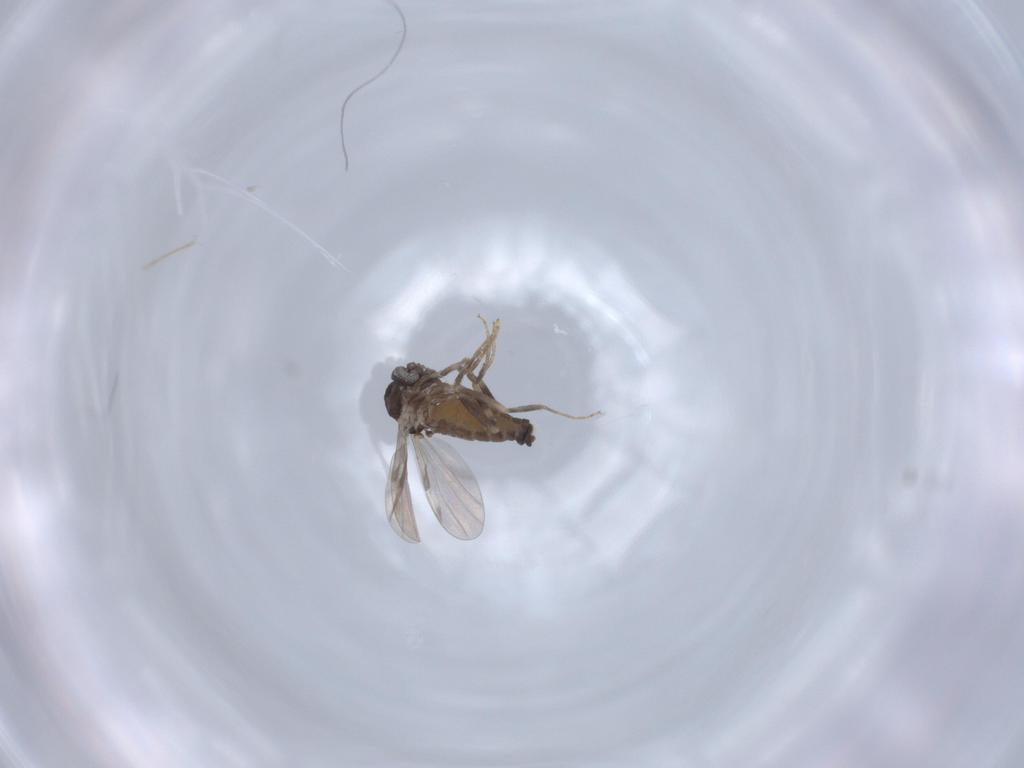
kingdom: Animalia
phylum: Arthropoda
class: Insecta
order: Diptera
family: Ceratopogonidae
